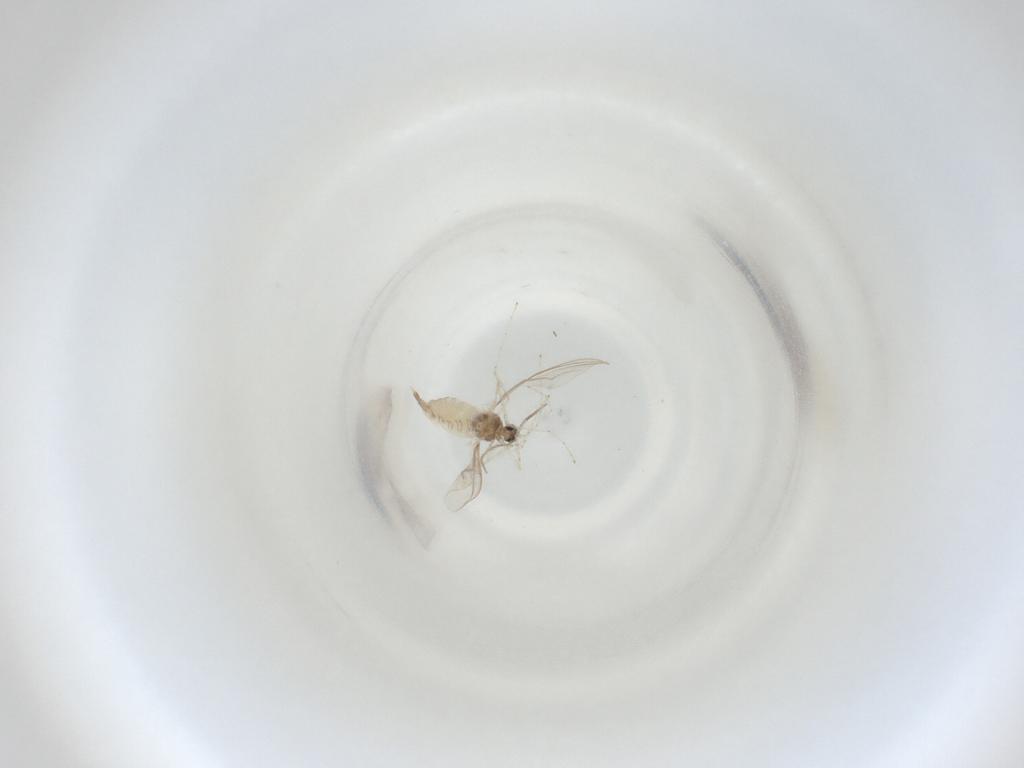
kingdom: Animalia
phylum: Arthropoda
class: Insecta
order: Diptera
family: Cecidomyiidae
